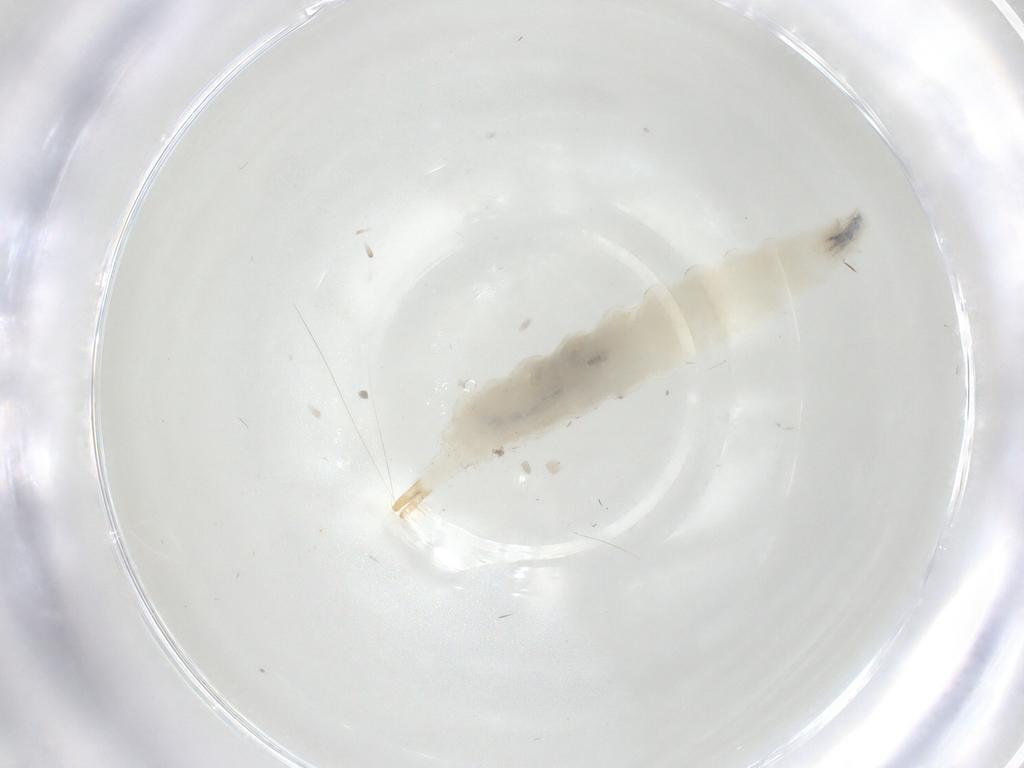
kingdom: Animalia
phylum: Arthropoda
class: Insecta
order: Diptera
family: Drosophilidae
